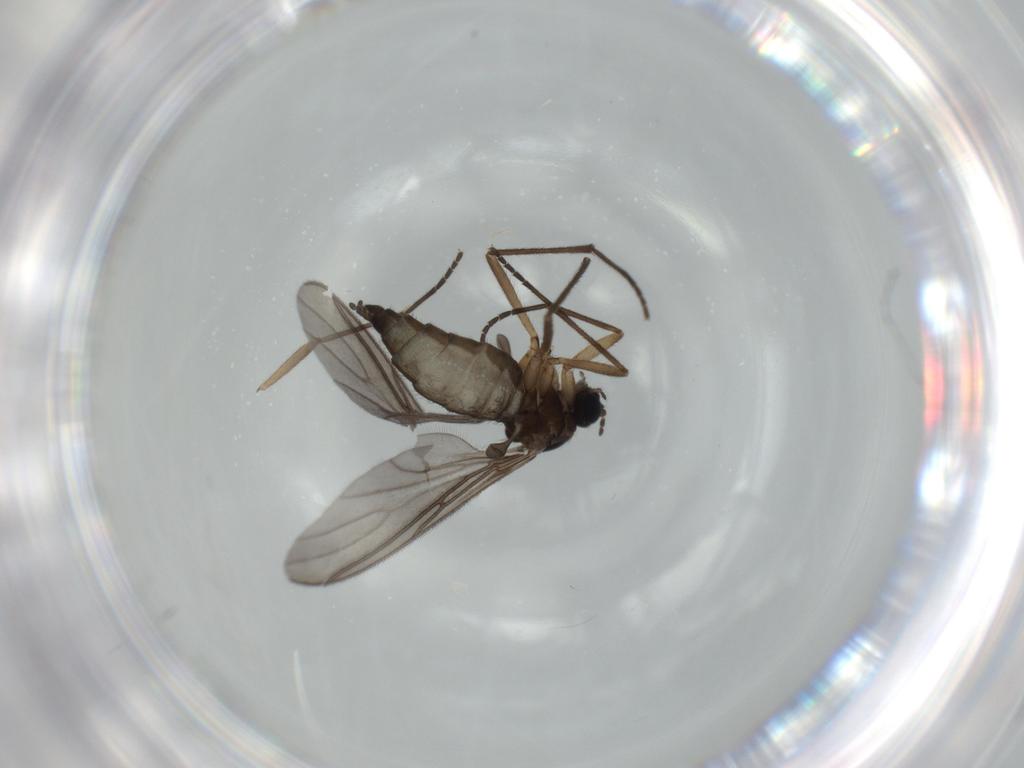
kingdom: Animalia
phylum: Arthropoda
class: Insecta
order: Diptera
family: Sciaridae
